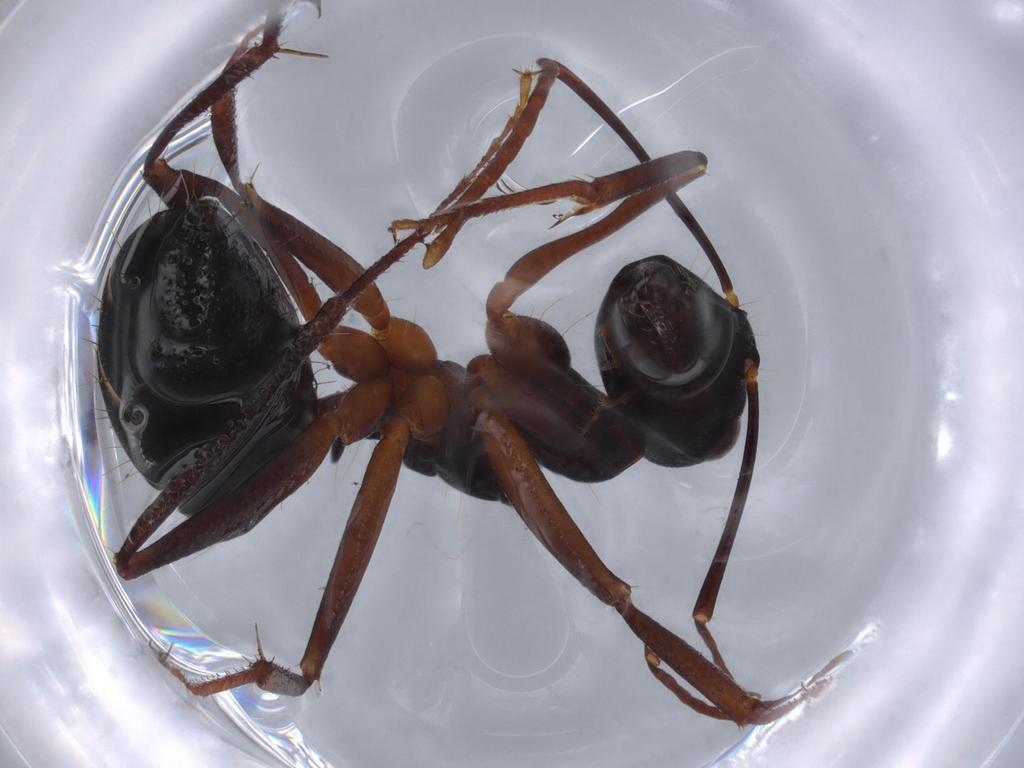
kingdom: Animalia
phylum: Arthropoda
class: Insecta
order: Hymenoptera
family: Formicidae
